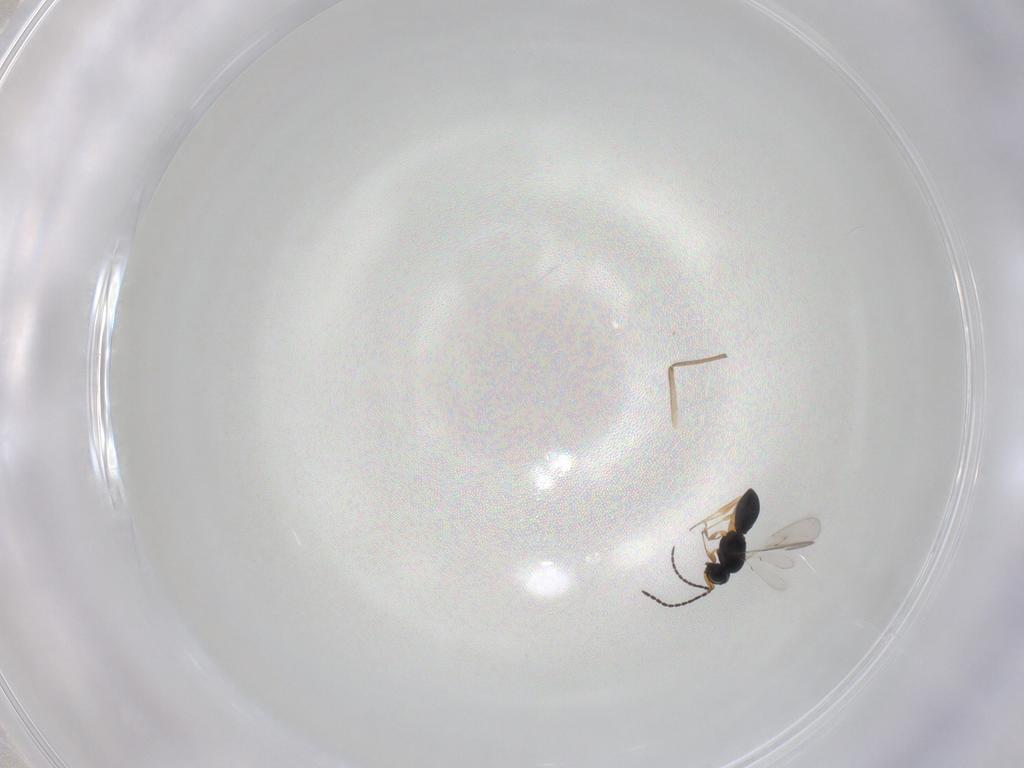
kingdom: Animalia
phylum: Arthropoda
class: Insecta
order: Hymenoptera
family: Scelionidae
